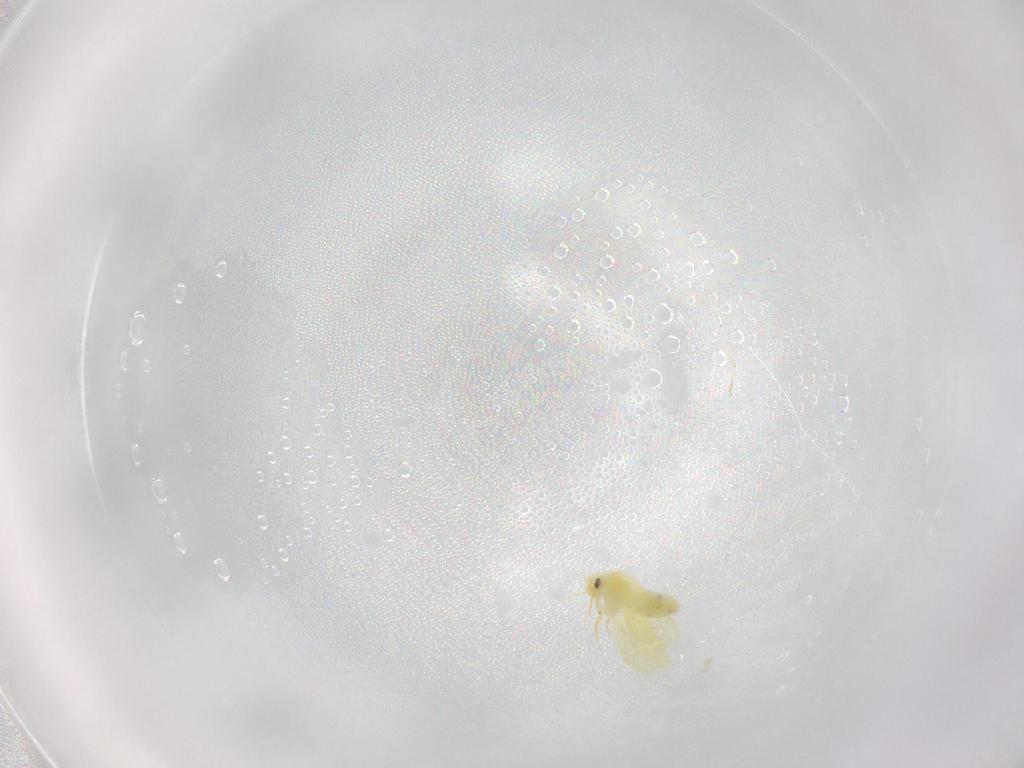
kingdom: Animalia
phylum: Arthropoda
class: Insecta
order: Hemiptera
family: Aleyrodidae
